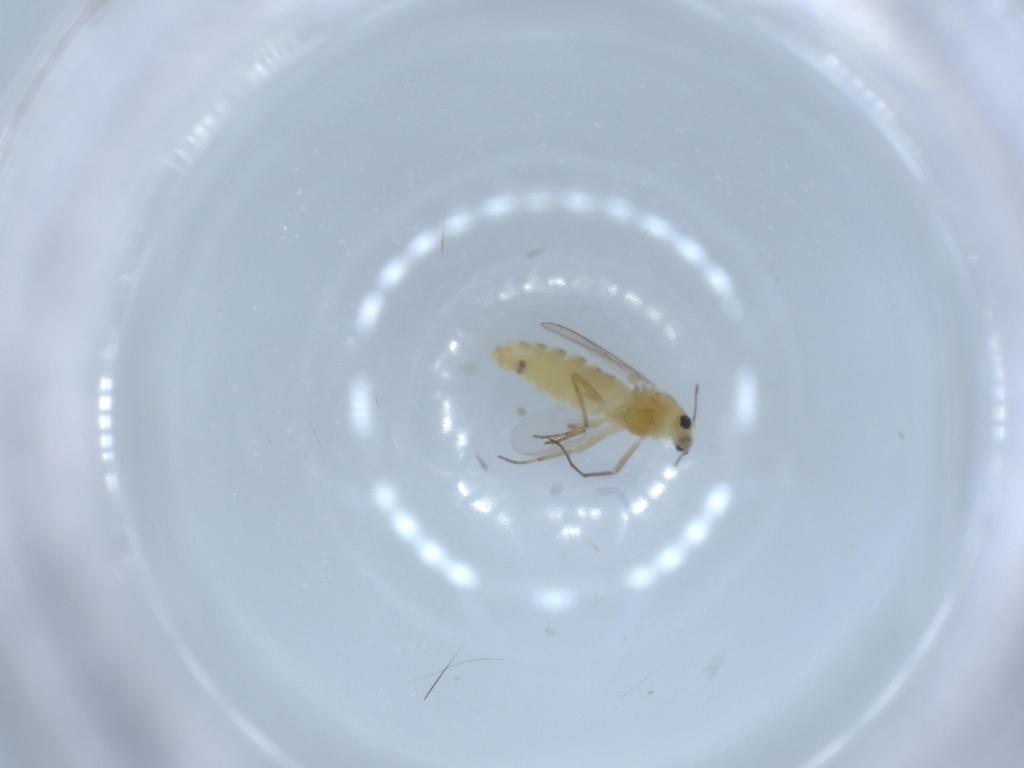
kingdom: Animalia
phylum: Arthropoda
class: Insecta
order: Diptera
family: Chironomidae
